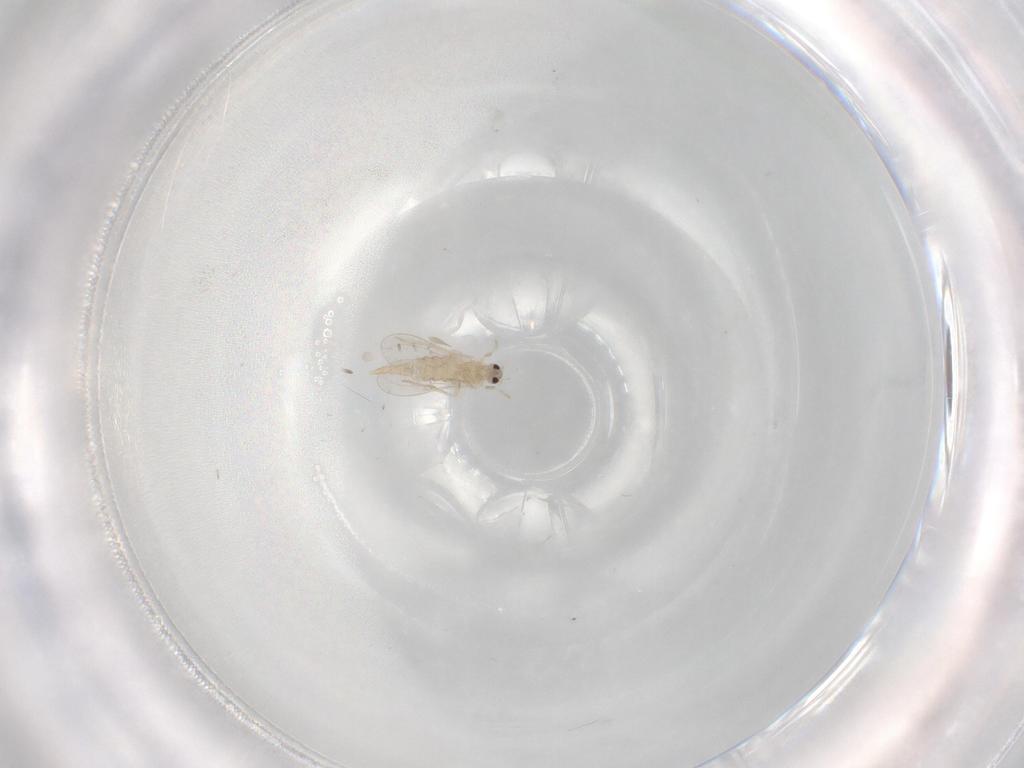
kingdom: Animalia
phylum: Arthropoda
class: Insecta
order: Diptera
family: Cecidomyiidae
